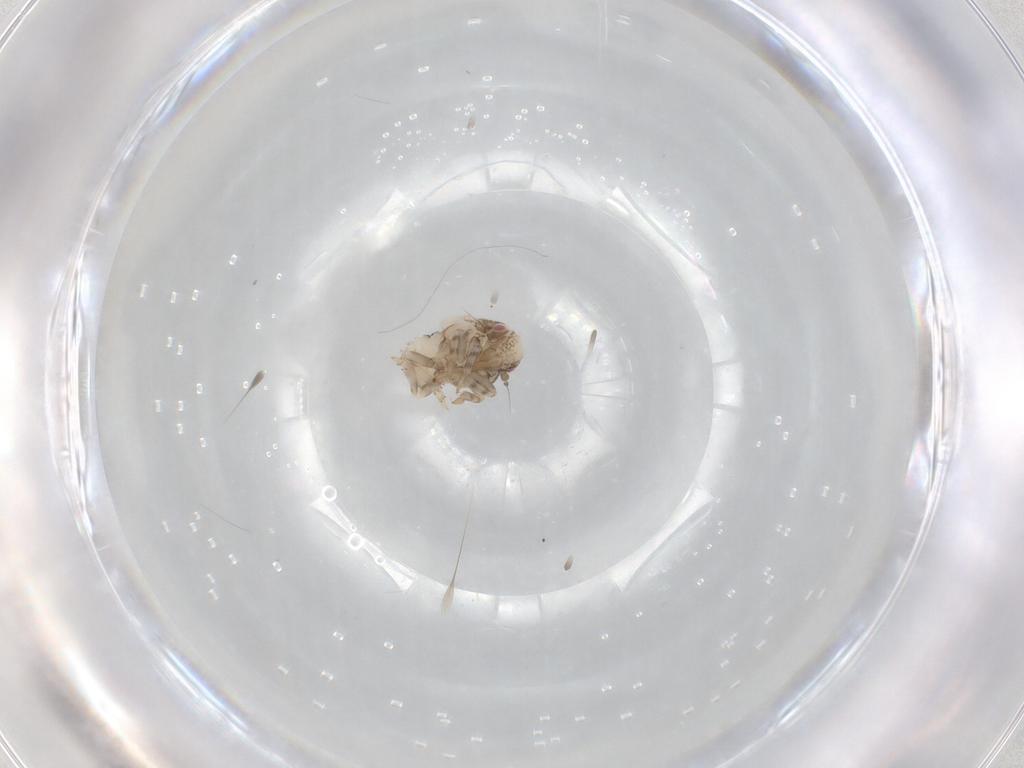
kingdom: Animalia
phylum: Arthropoda
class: Insecta
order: Hemiptera
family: Acanaloniidae
